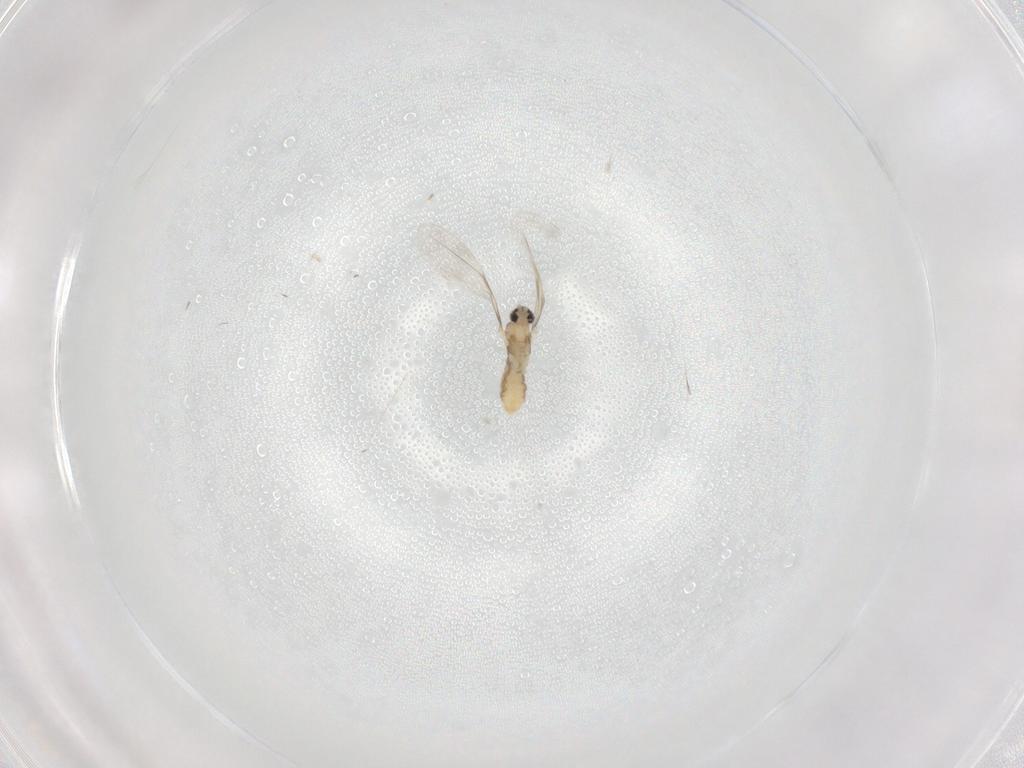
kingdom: Animalia
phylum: Arthropoda
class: Insecta
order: Diptera
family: Cecidomyiidae
